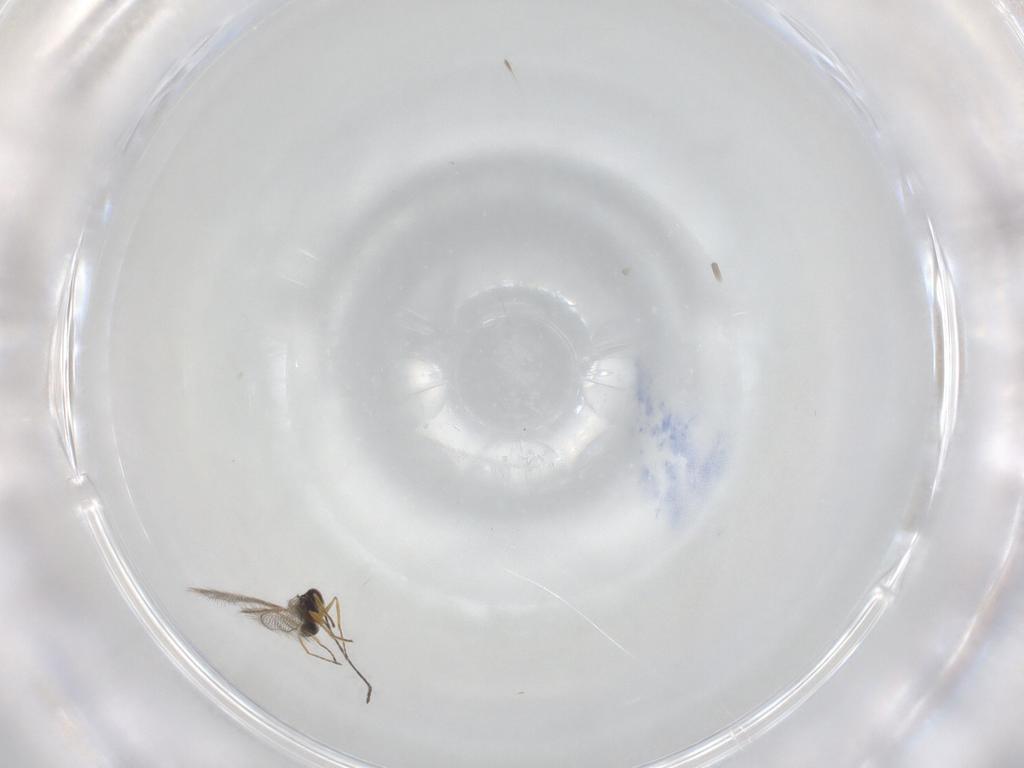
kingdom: Animalia
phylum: Arthropoda
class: Insecta
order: Hymenoptera
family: Mymaridae
